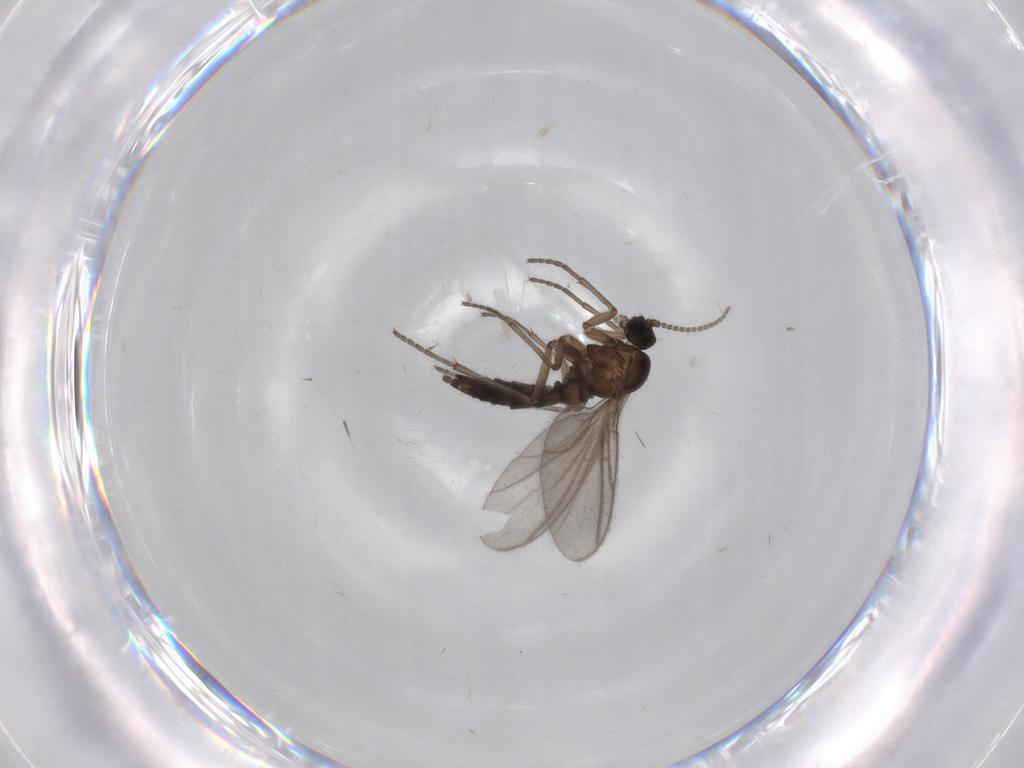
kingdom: Animalia
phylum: Arthropoda
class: Insecta
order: Diptera
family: Sciaridae
